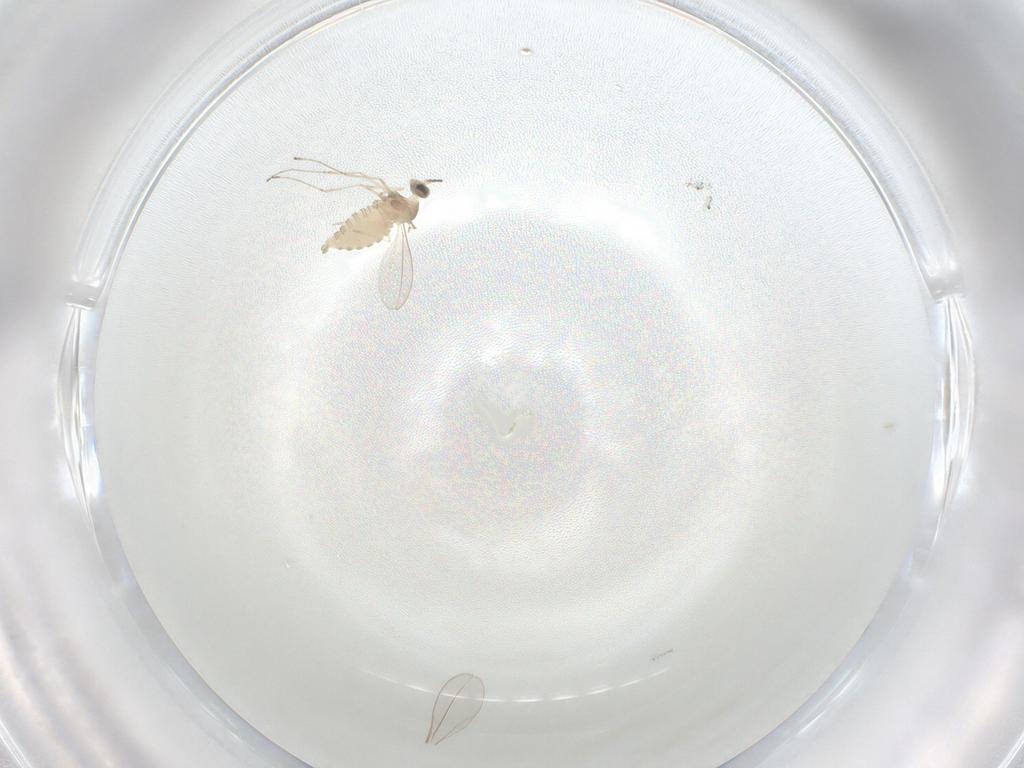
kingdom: Animalia
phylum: Arthropoda
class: Insecta
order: Diptera
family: Cecidomyiidae
